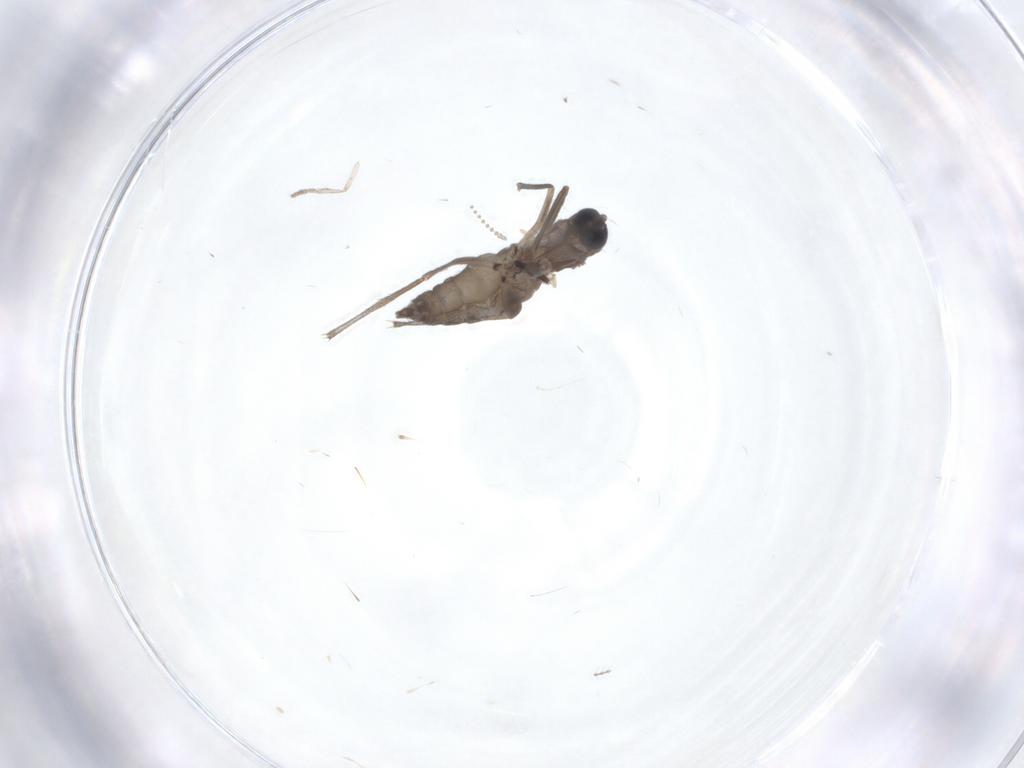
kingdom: Animalia
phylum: Arthropoda
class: Insecta
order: Diptera
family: Sciaridae
